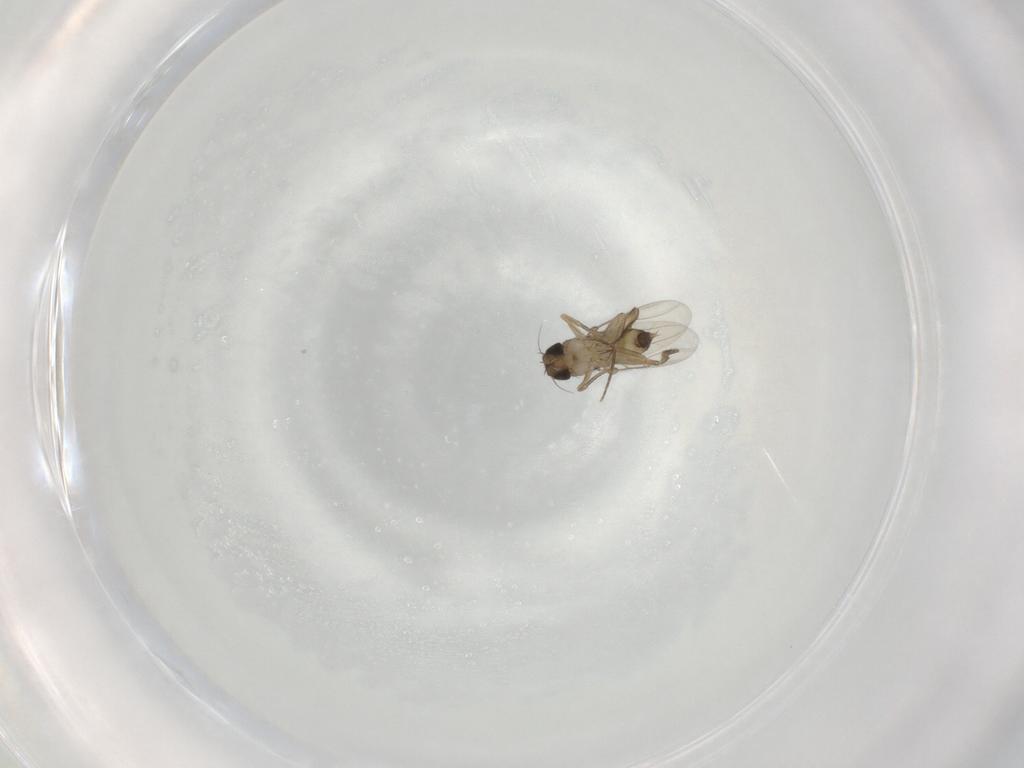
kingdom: Animalia
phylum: Arthropoda
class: Insecta
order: Diptera
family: Phoridae
